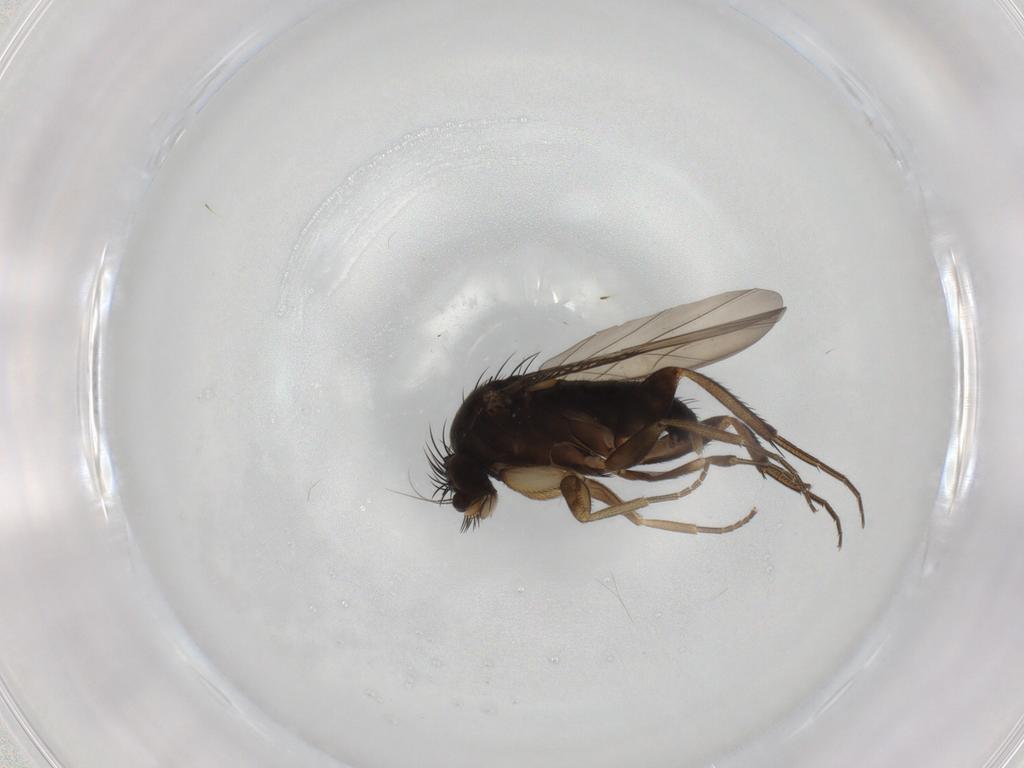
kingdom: Animalia
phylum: Arthropoda
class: Insecta
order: Diptera
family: Phoridae
